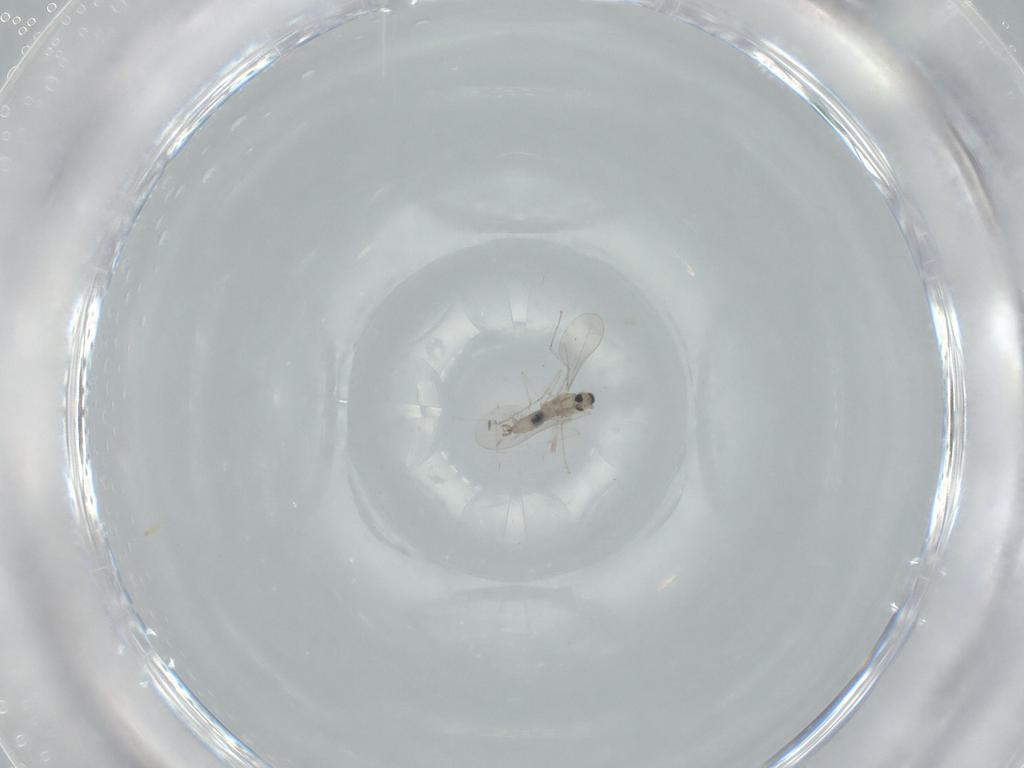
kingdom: Animalia
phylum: Arthropoda
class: Insecta
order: Diptera
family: Cecidomyiidae
